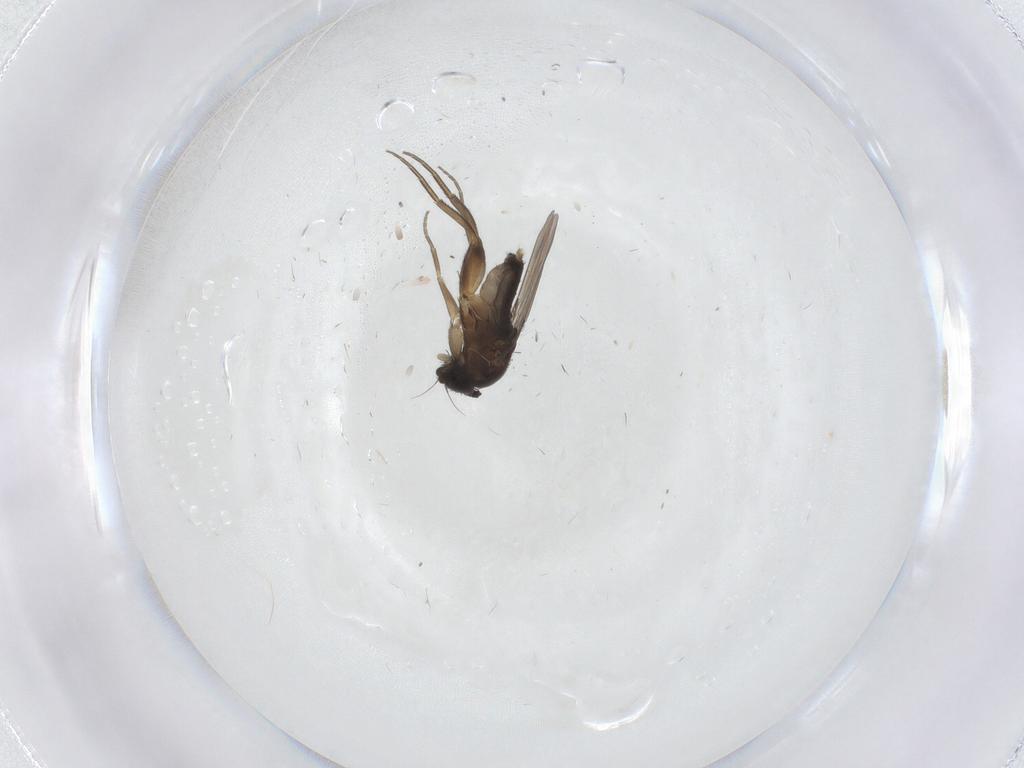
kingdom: Animalia
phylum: Arthropoda
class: Insecta
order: Diptera
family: Phoridae
